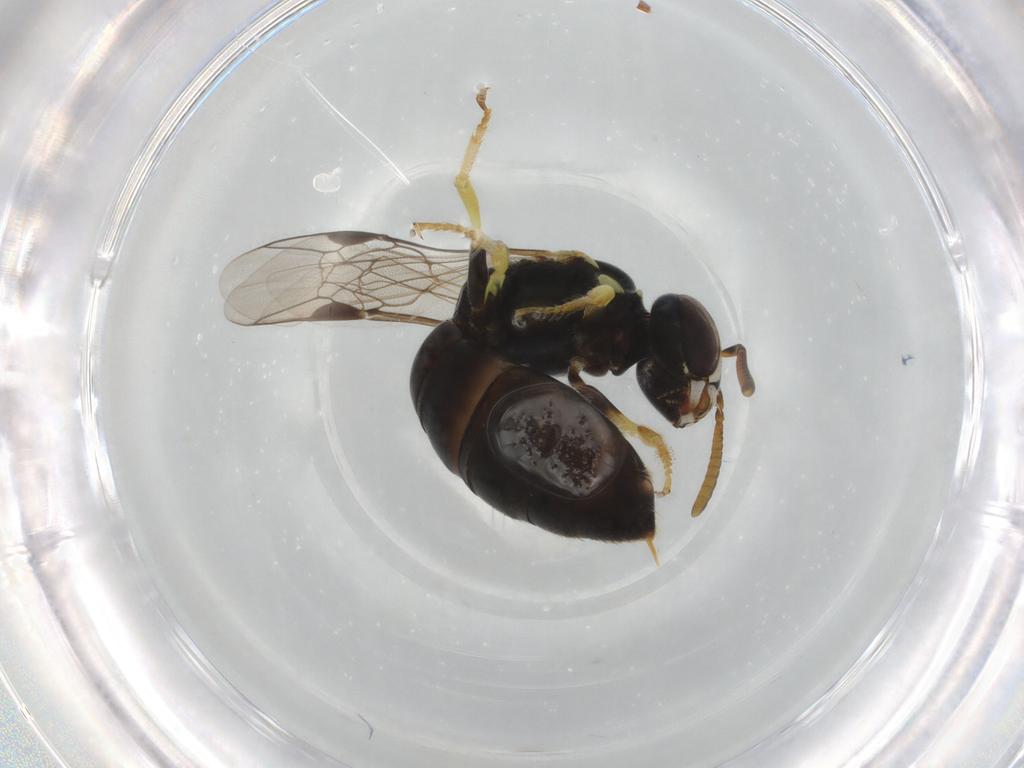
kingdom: Animalia
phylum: Arthropoda
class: Insecta
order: Hymenoptera
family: Colletidae
